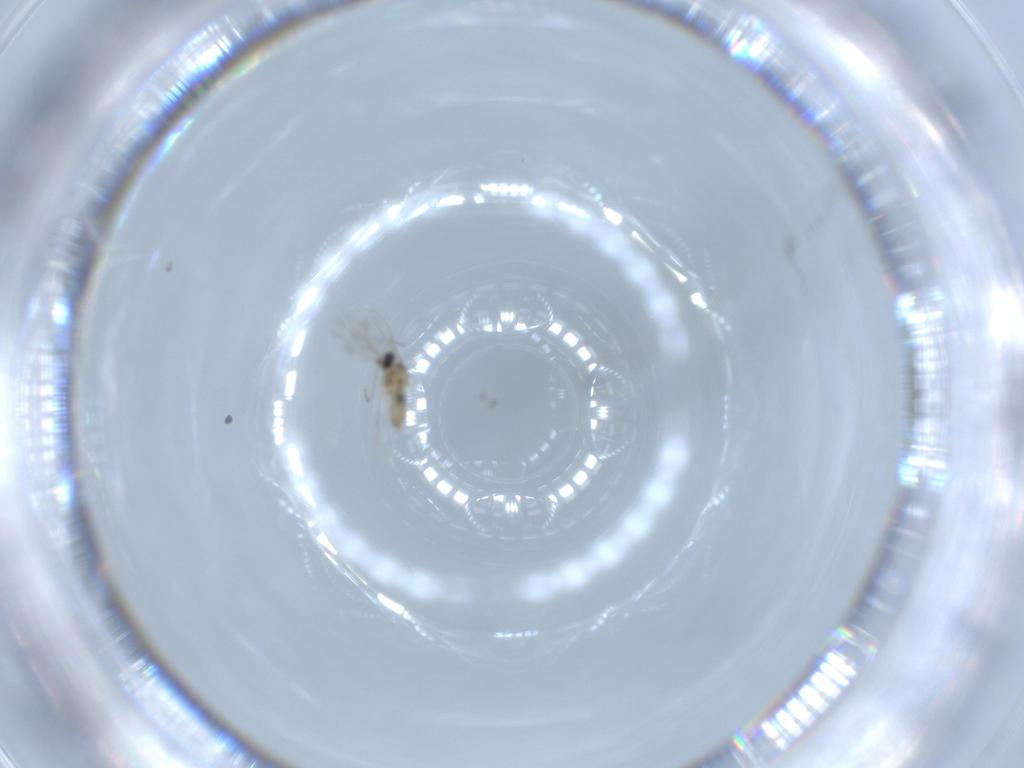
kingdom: Animalia
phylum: Arthropoda
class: Insecta
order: Diptera
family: Cecidomyiidae
